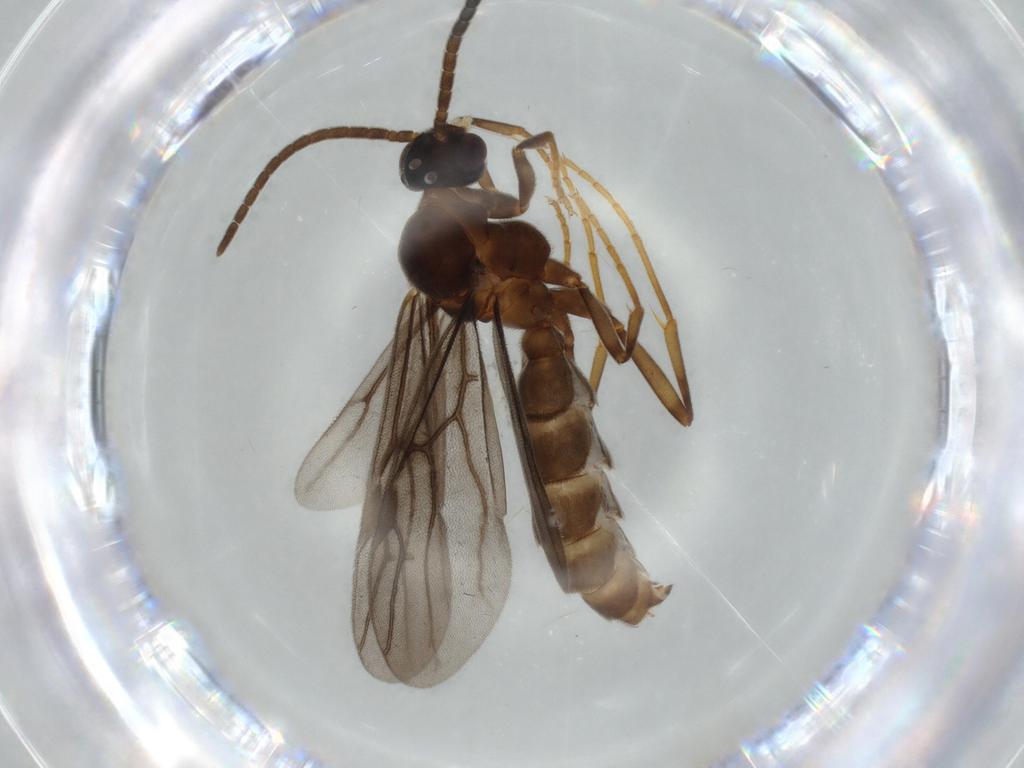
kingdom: Animalia
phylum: Arthropoda
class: Insecta
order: Hymenoptera
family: Formicidae
